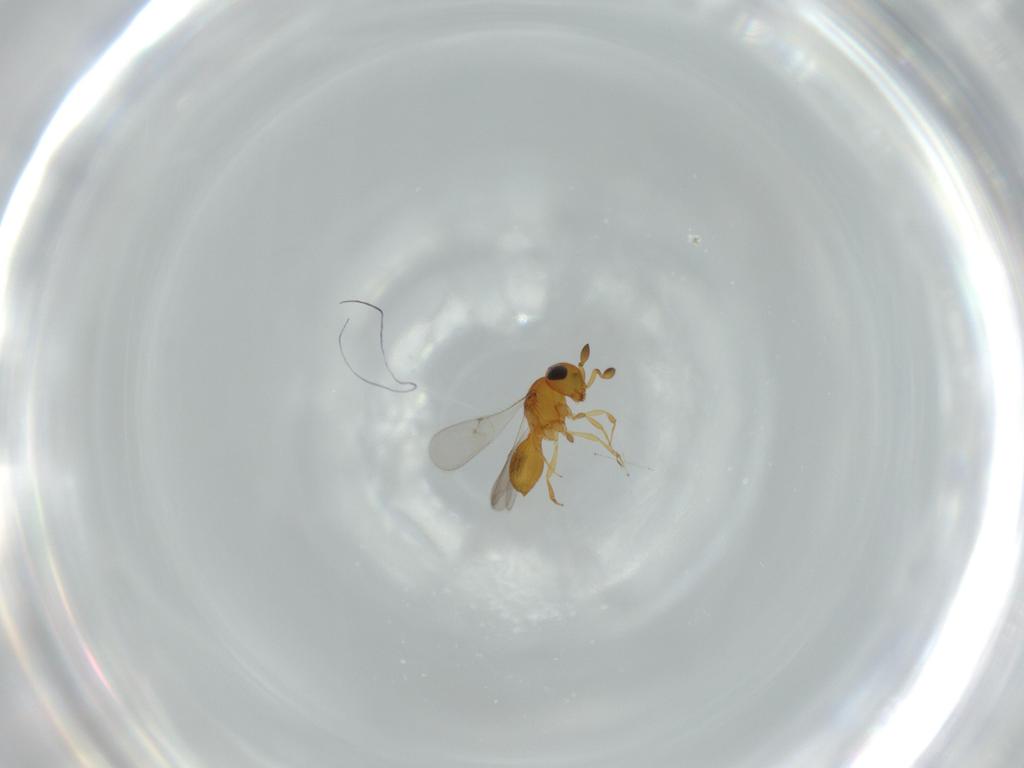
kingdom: Animalia
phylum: Arthropoda
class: Insecta
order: Hymenoptera
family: Scelionidae
